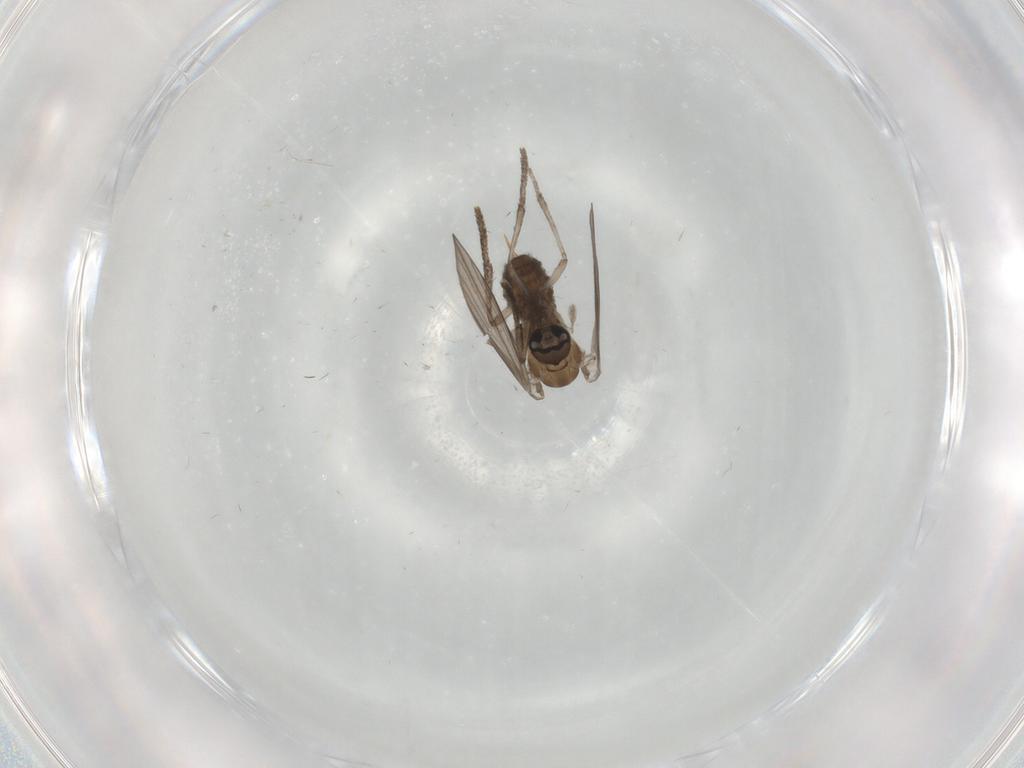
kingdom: Animalia
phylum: Arthropoda
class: Insecta
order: Diptera
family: Psychodidae
